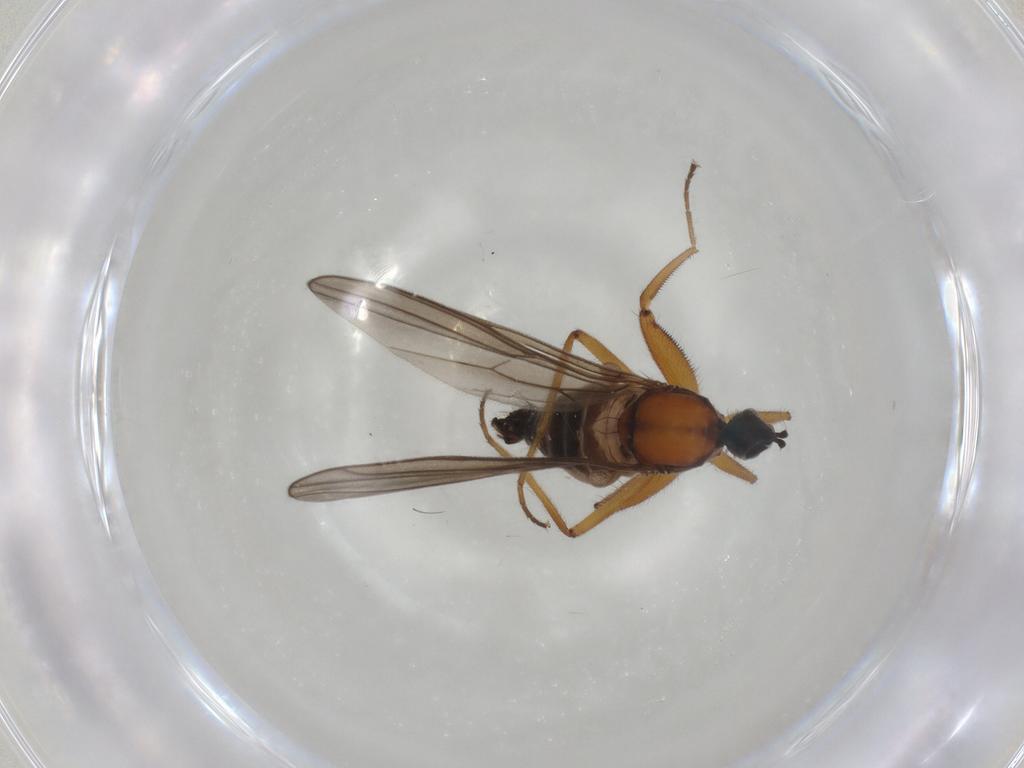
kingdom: Animalia
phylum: Arthropoda
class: Insecta
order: Diptera
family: Hybotidae
